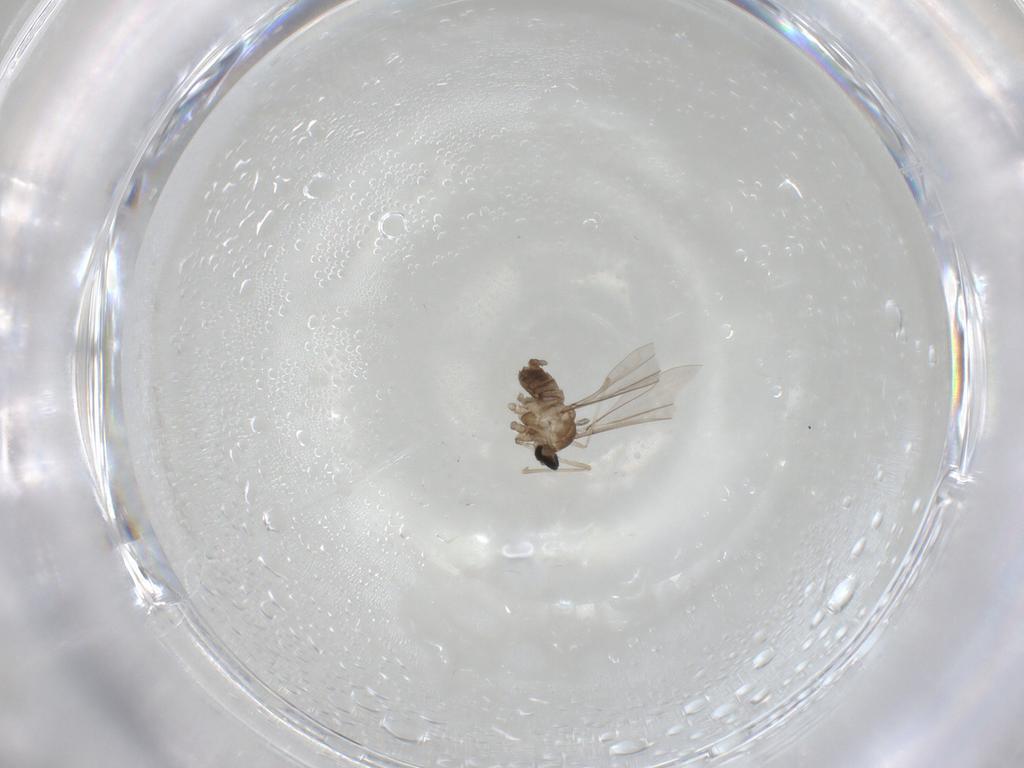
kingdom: Animalia
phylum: Arthropoda
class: Insecta
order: Diptera
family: Cecidomyiidae
